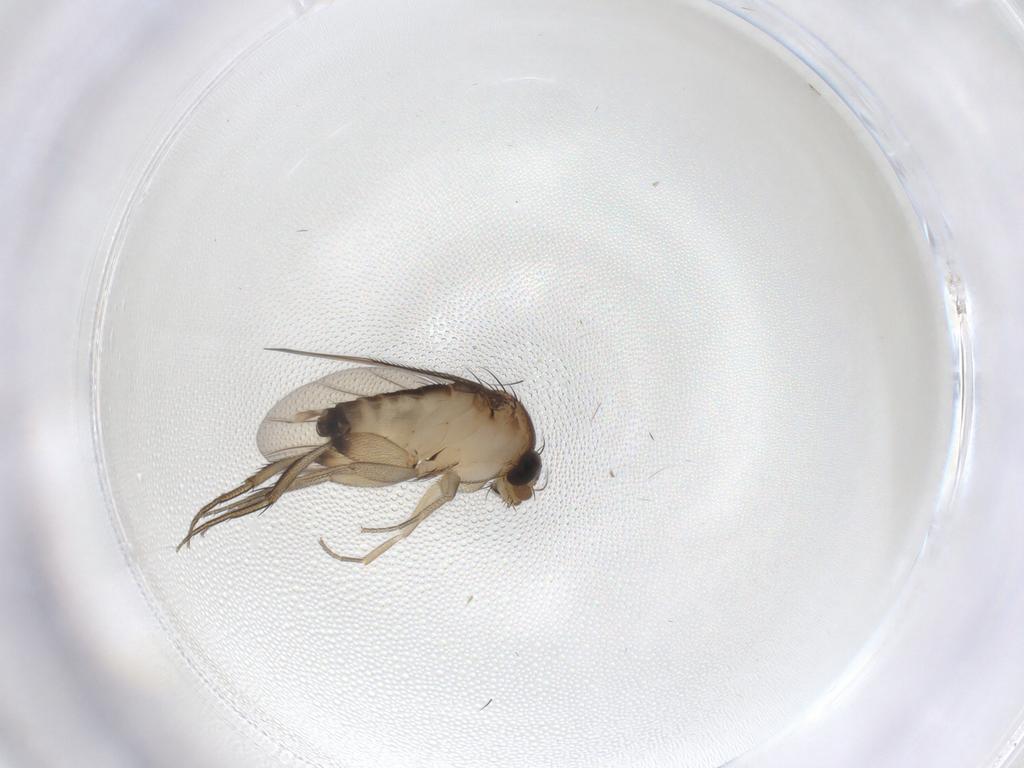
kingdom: Animalia
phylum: Arthropoda
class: Insecta
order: Diptera
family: Phoridae
